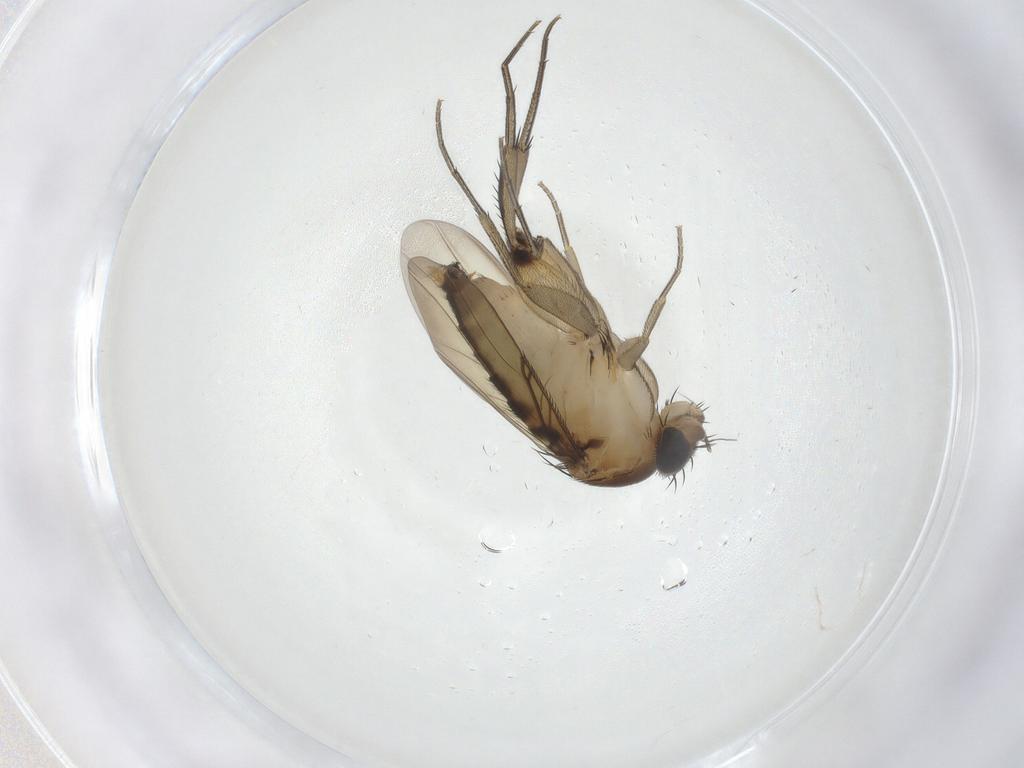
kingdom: Animalia
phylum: Arthropoda
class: Insecta
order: Diptera
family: Phoridae
